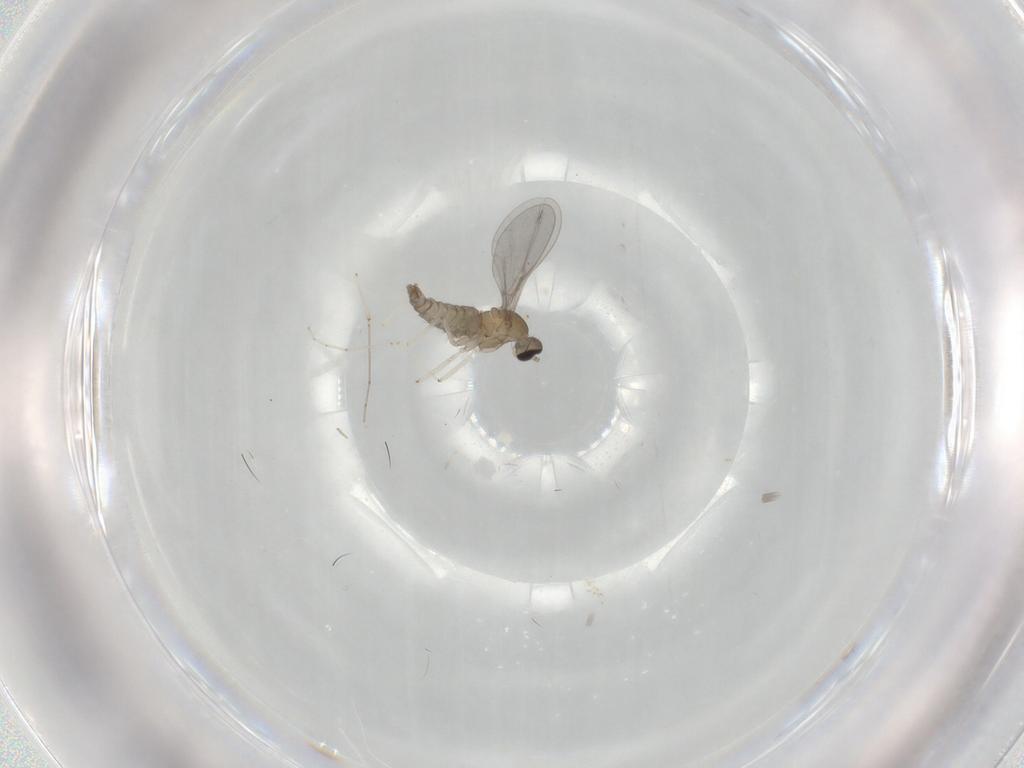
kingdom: Animalia
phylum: Arthropoda
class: Insecta
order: Diptera
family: Cecidomyiidae
